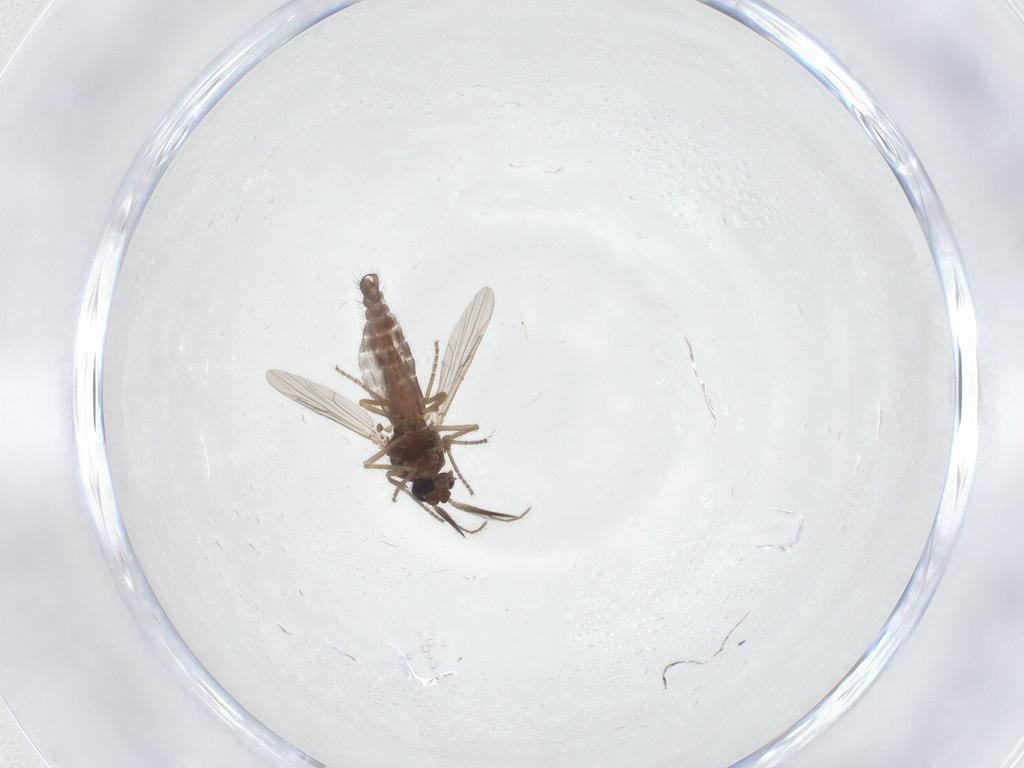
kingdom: Animalia
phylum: Arthropoda
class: Insecta
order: Diptera
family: Ceratopogonidae
